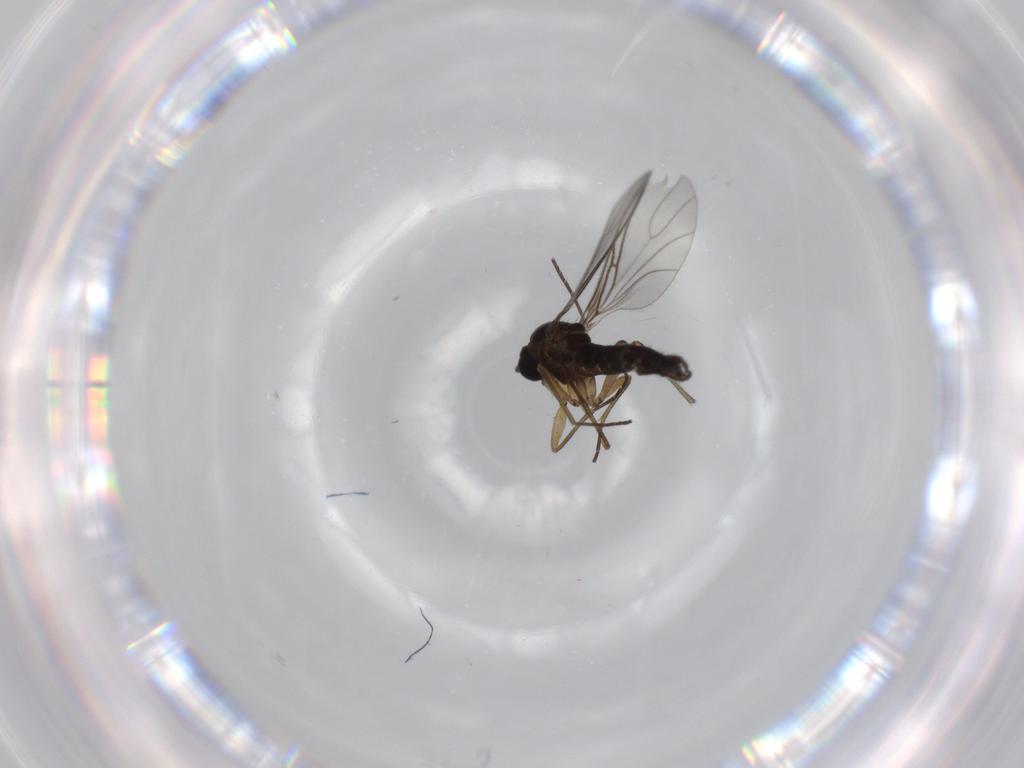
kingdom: Animalia
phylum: Arthropoda
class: Insecta
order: Diptera
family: Sciaridae
